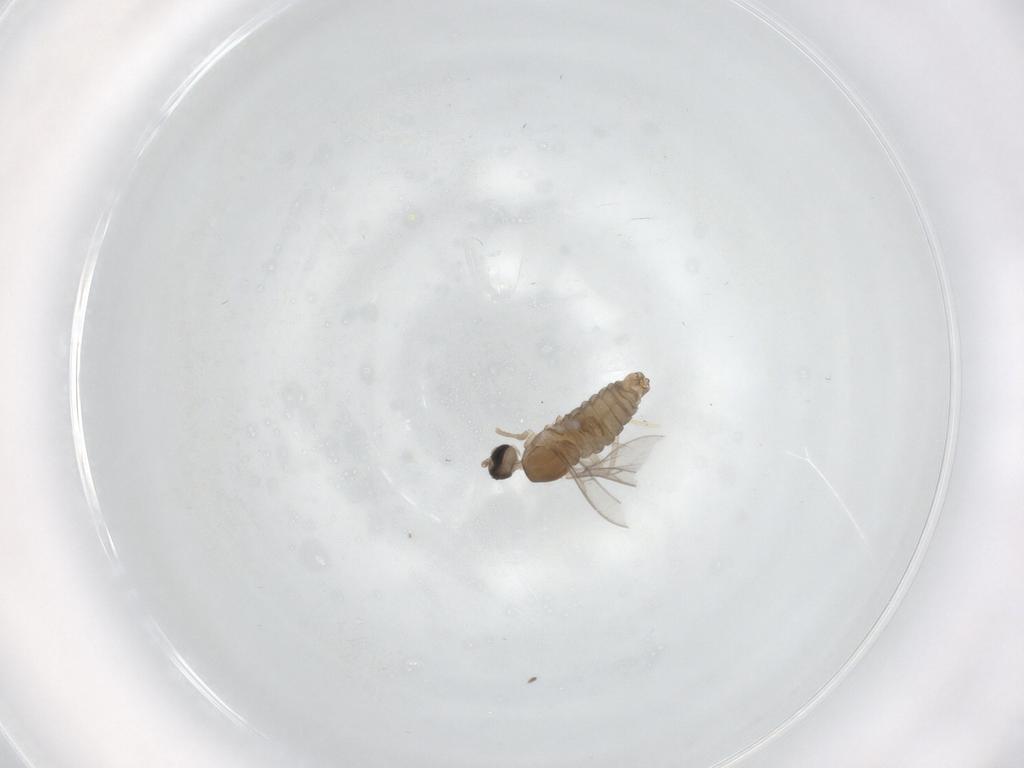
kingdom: Animalia
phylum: Arthropoda
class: Insecta
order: Diptera
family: Cecidomyiidae
